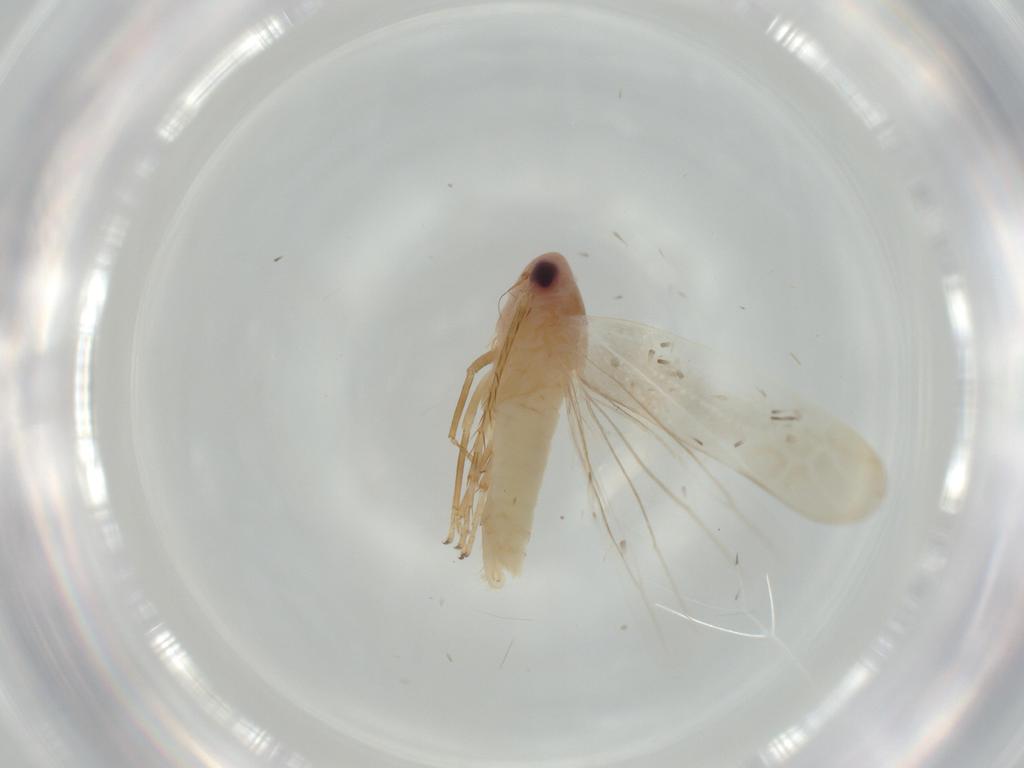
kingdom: Animalia
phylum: Arthropoda
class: Insecta
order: Hemiptera
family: Cicadellidae
